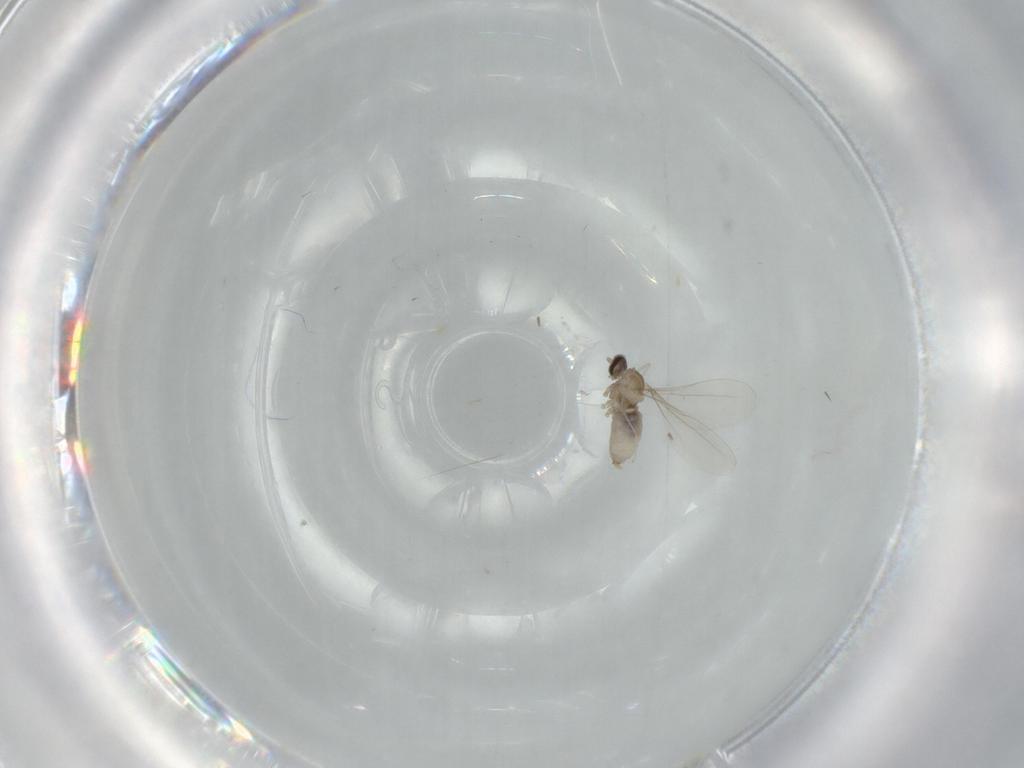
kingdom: Animalia
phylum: Arthropoda
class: Insecta
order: Diptera
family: Cecidomyiidae
